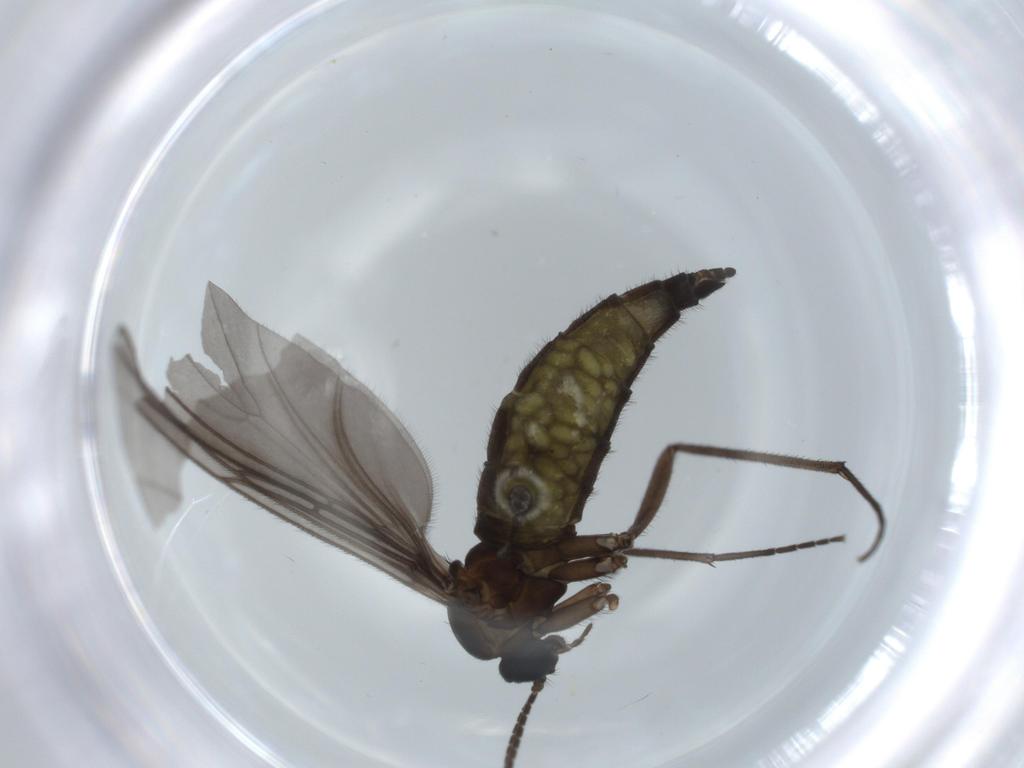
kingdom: Animalia
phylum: Arthropoda
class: Insecta
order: Diptera
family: Sciaridae
